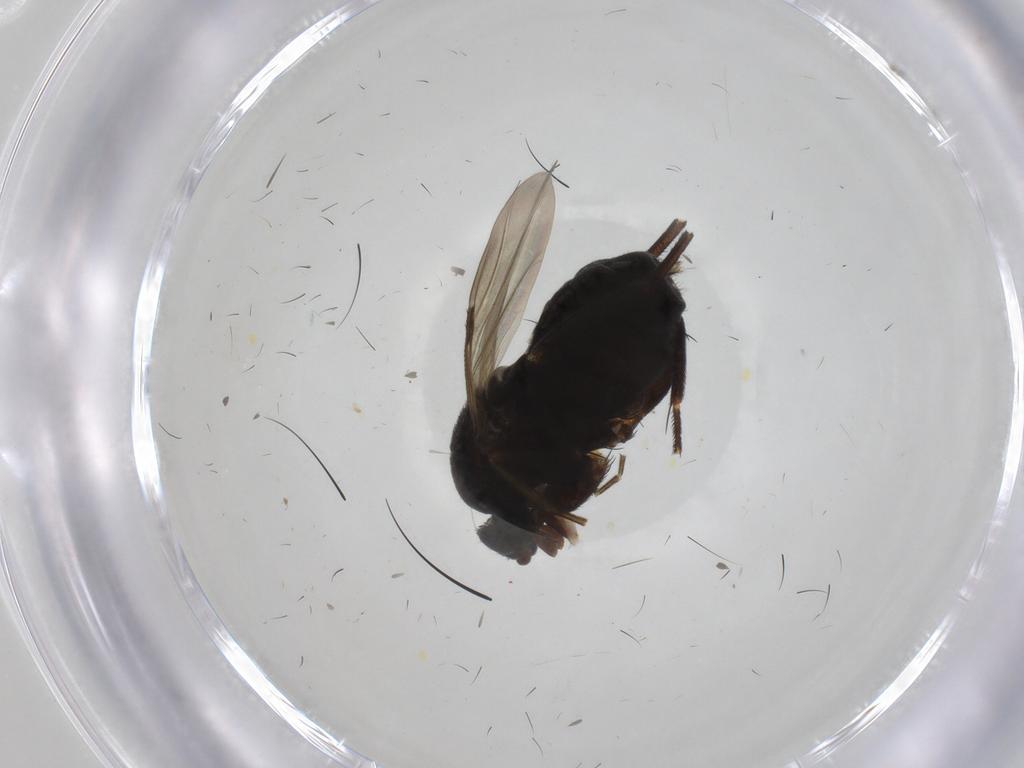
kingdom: Animalia
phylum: Arthropoda
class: Insecta
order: Diptera
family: Phoridae
